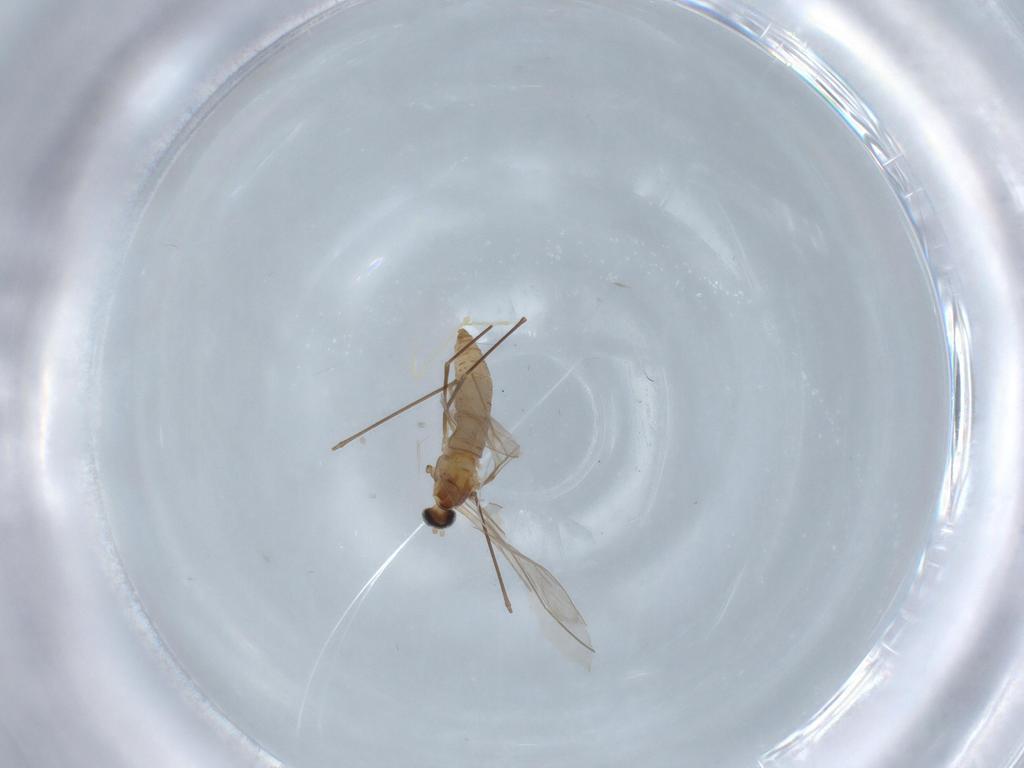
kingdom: Animalia
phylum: Arthropoda
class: Insecta
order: Diptera
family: Cecidomyiidae
